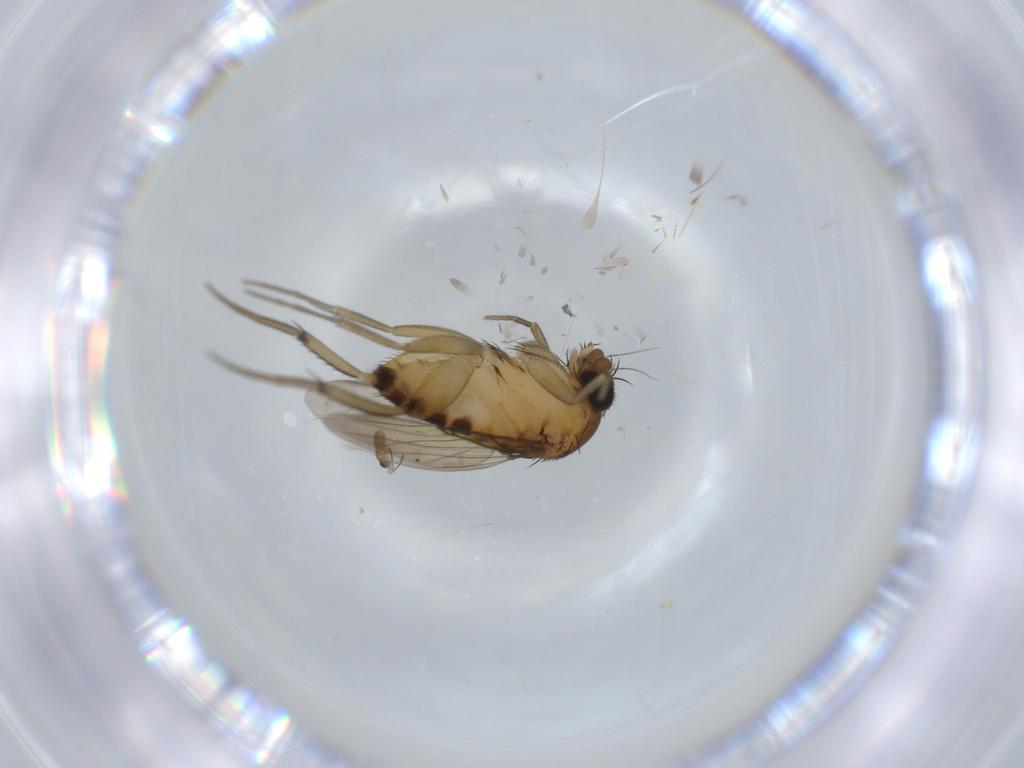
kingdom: Animalia
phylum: Arthropoda
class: Insecta
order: Diptera
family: Phoridae
